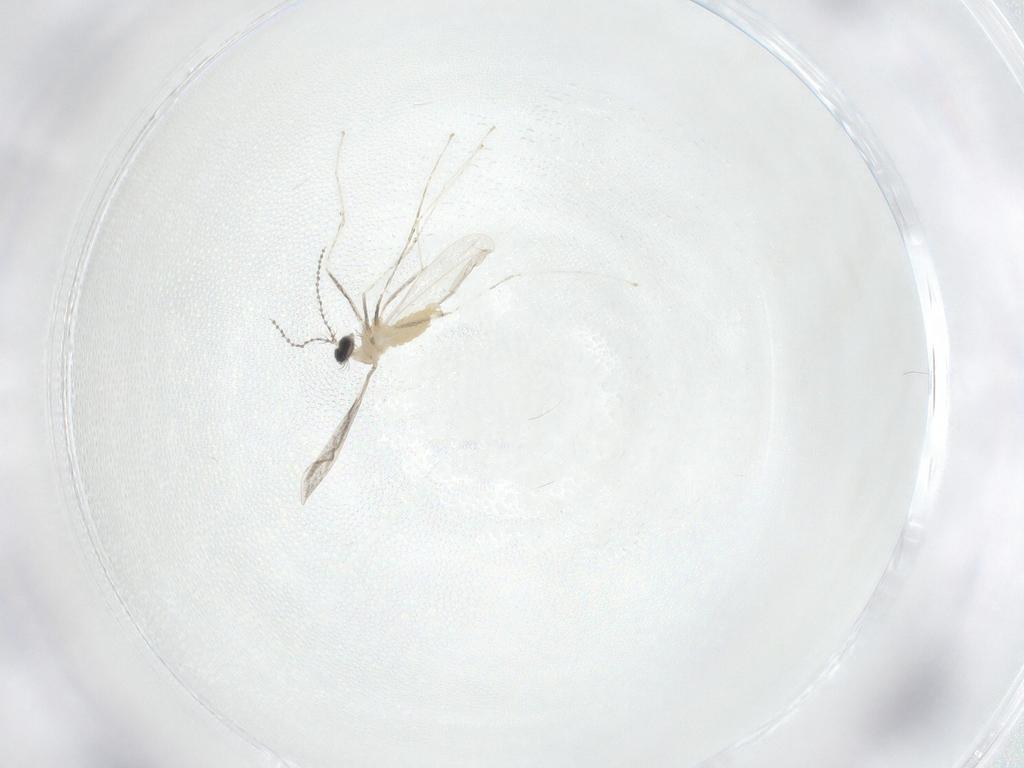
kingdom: Animalia
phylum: Arthropoda
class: Insecta
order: Diptera
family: Cecidomyiidae
